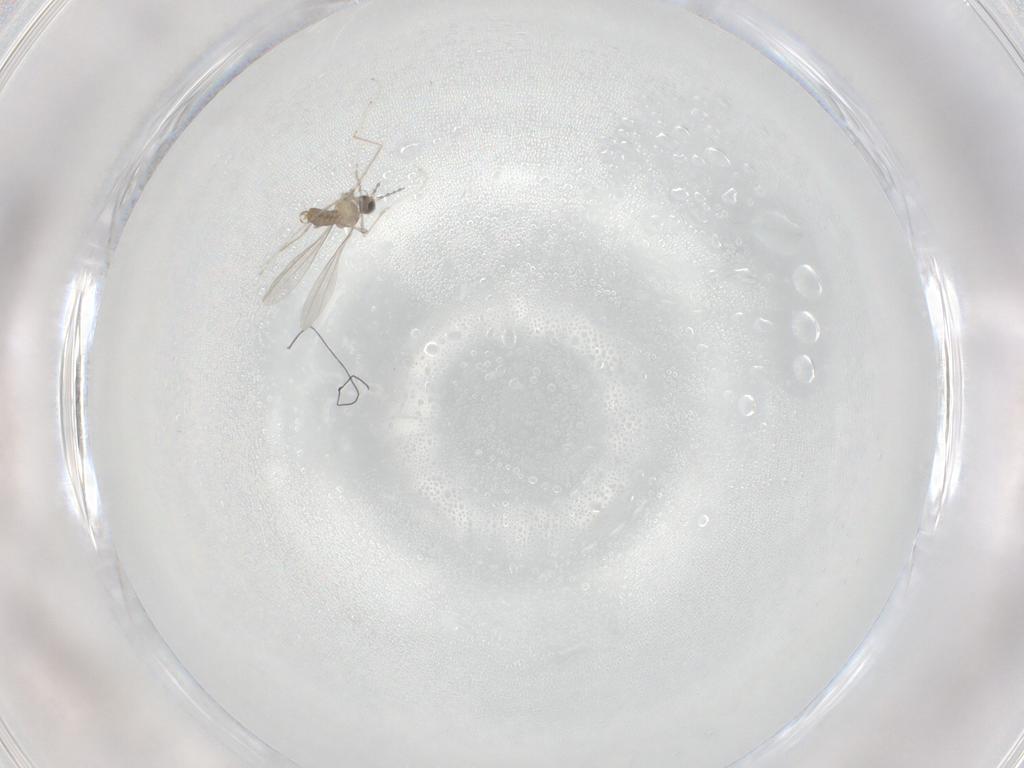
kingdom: Animalia
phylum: Arthropoda
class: Insecta
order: Diptera
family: Cecidomyiidae
